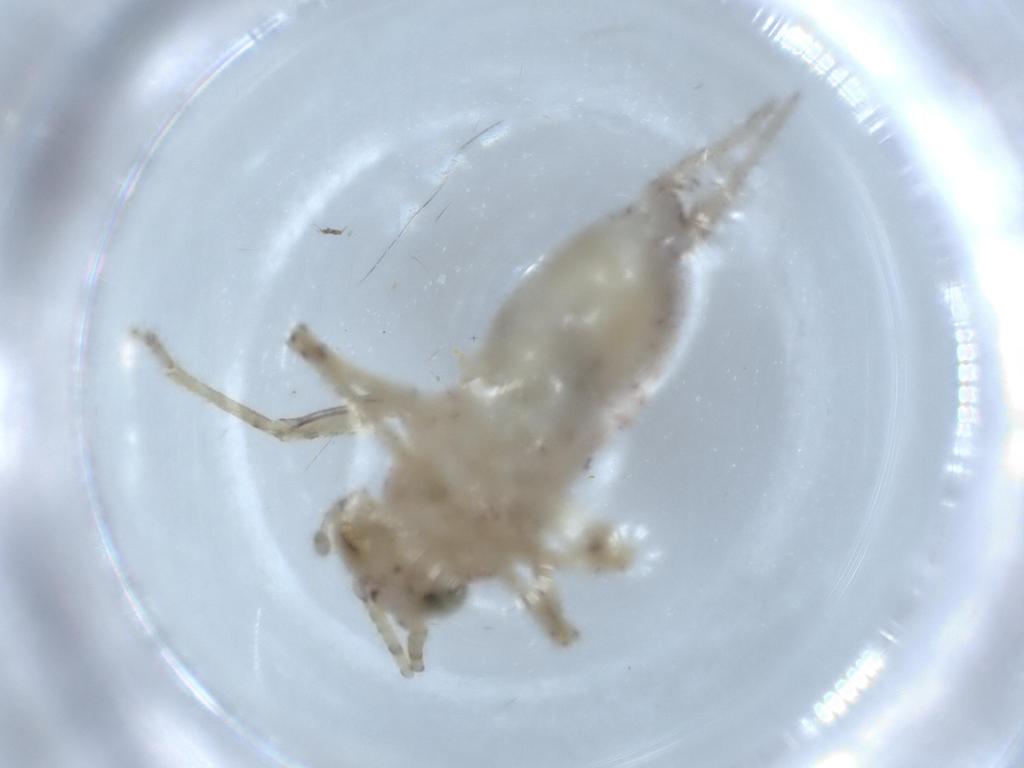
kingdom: Animalia
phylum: Arthropoda
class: Insecta
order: Orthoptera
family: Trigonidiidae
